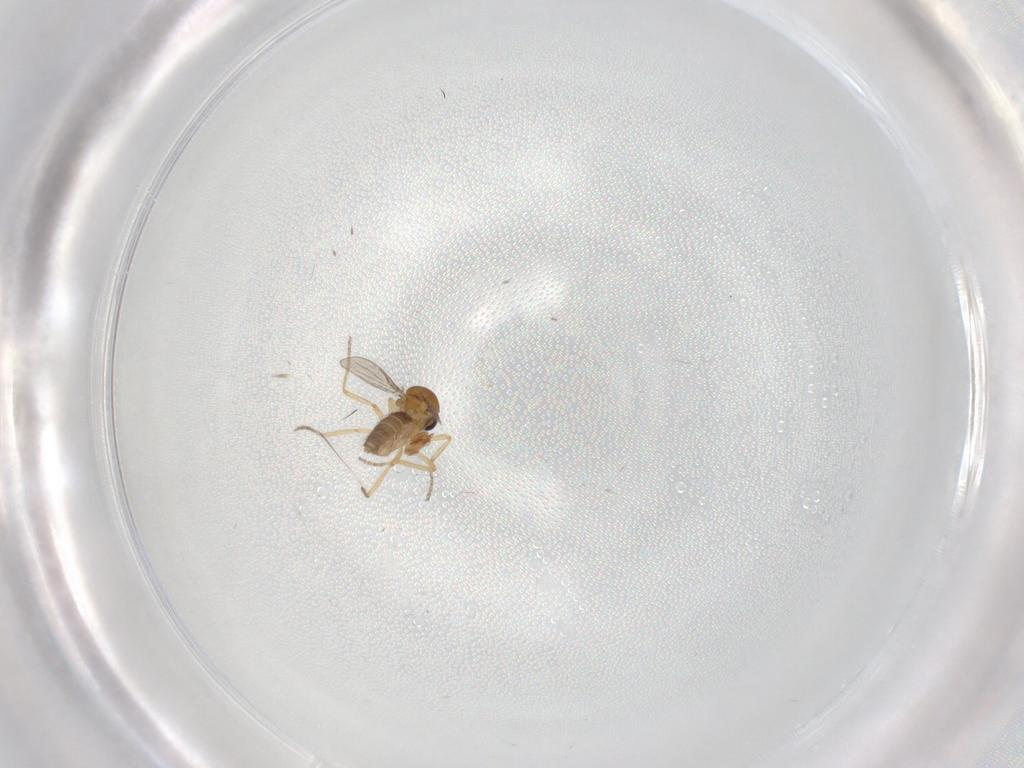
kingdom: Animalia
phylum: Arthropoda
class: Insecta
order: Diptera
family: Ceratopogonidae
